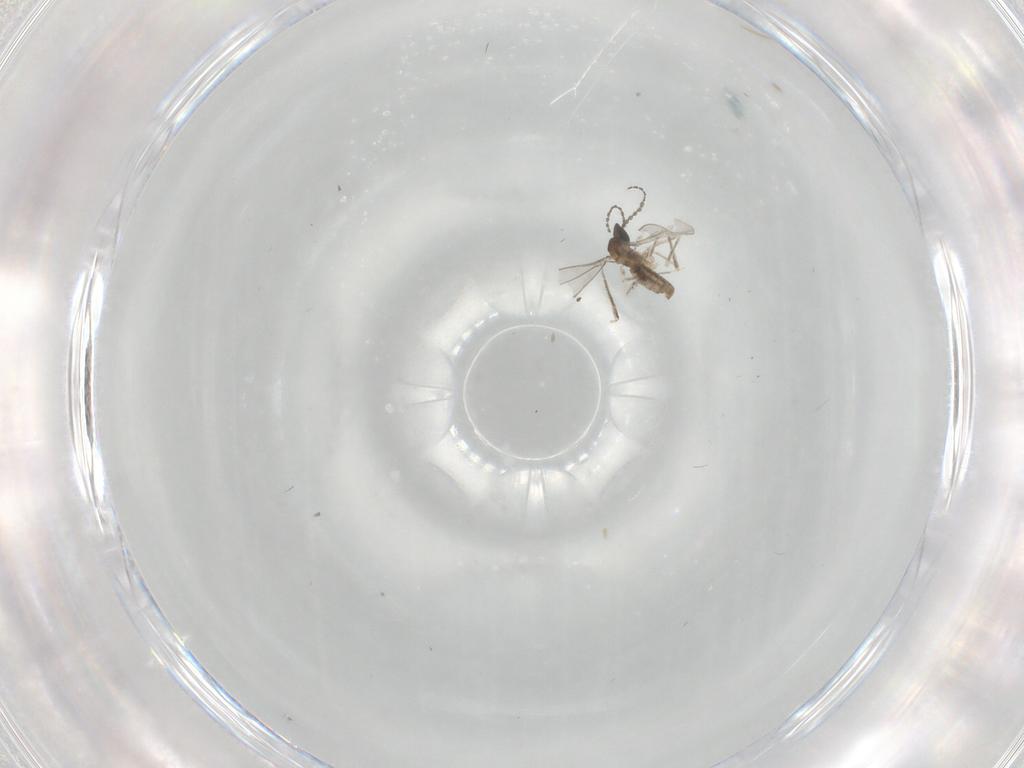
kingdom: Animalia
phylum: Arthropoda
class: Insecta
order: Diptera
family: Cecidomyiidae
